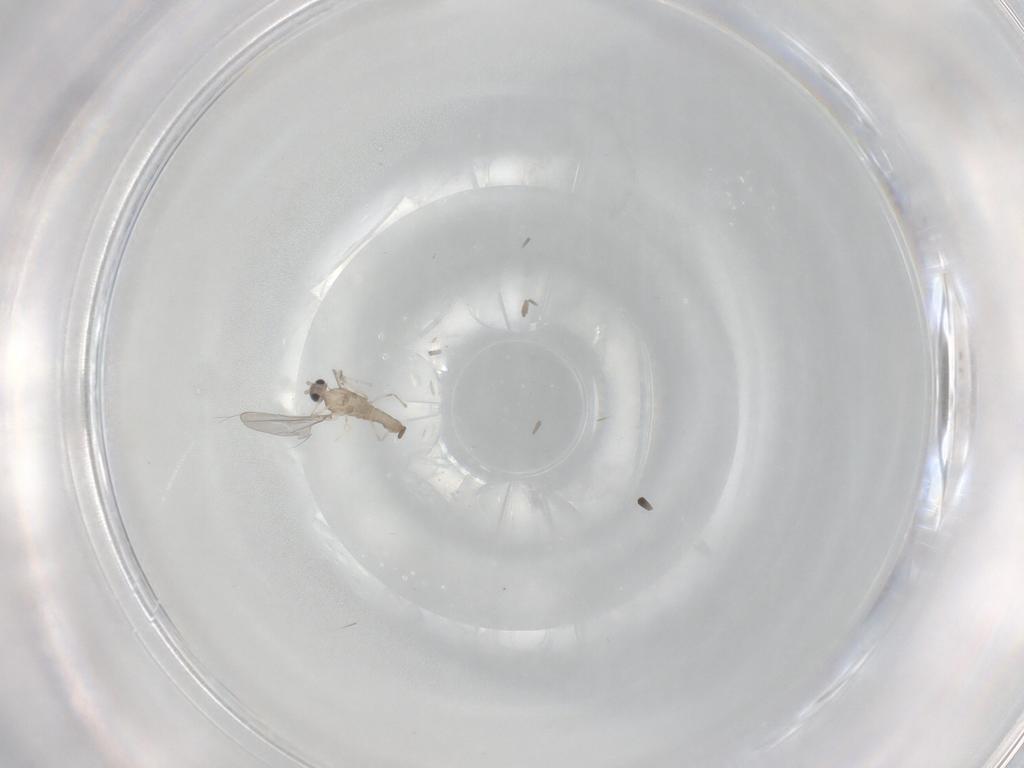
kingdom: Animalia
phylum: Arthropoda
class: Insecta
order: Diptera
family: Cecidomyiidae
